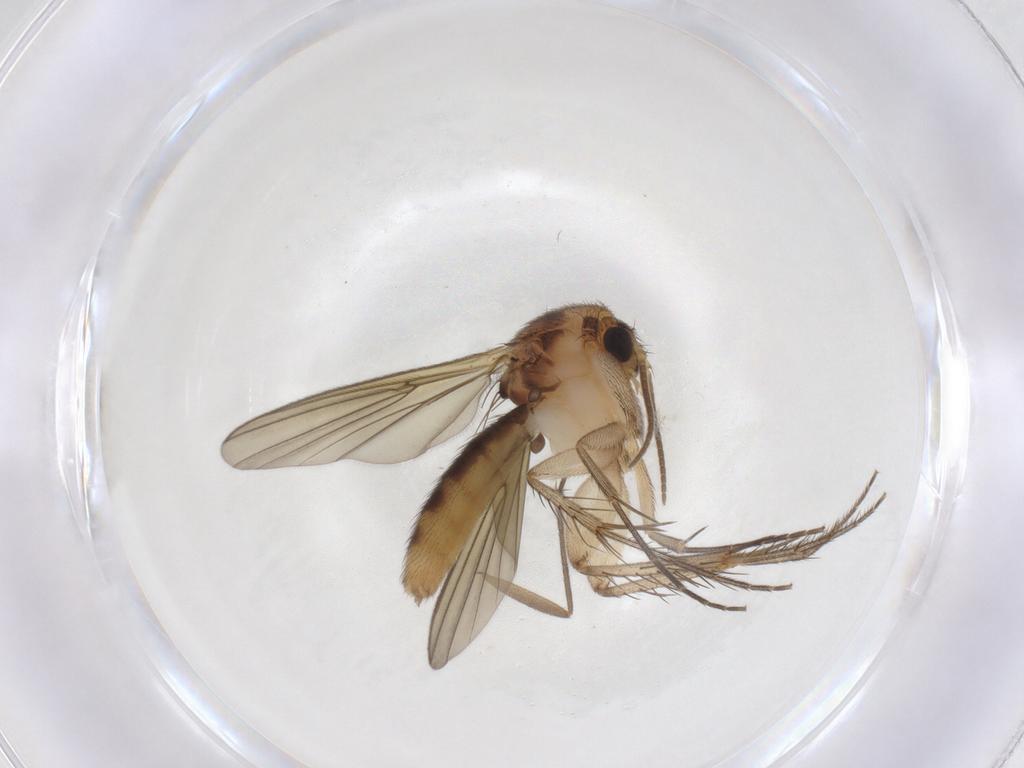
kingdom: Animalia
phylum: Arthropoda
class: Insecta
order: Diptera
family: Mycetophilidae
